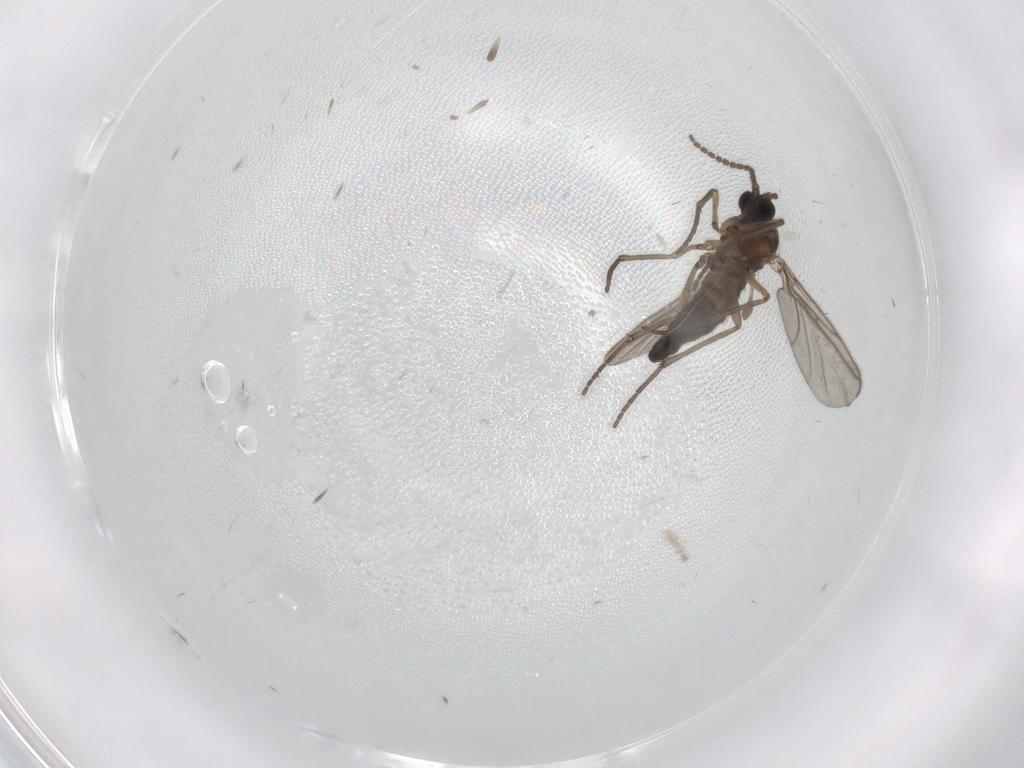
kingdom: Animalia
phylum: Arthropoda
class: Insecta
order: Diptera
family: Sciaridae
